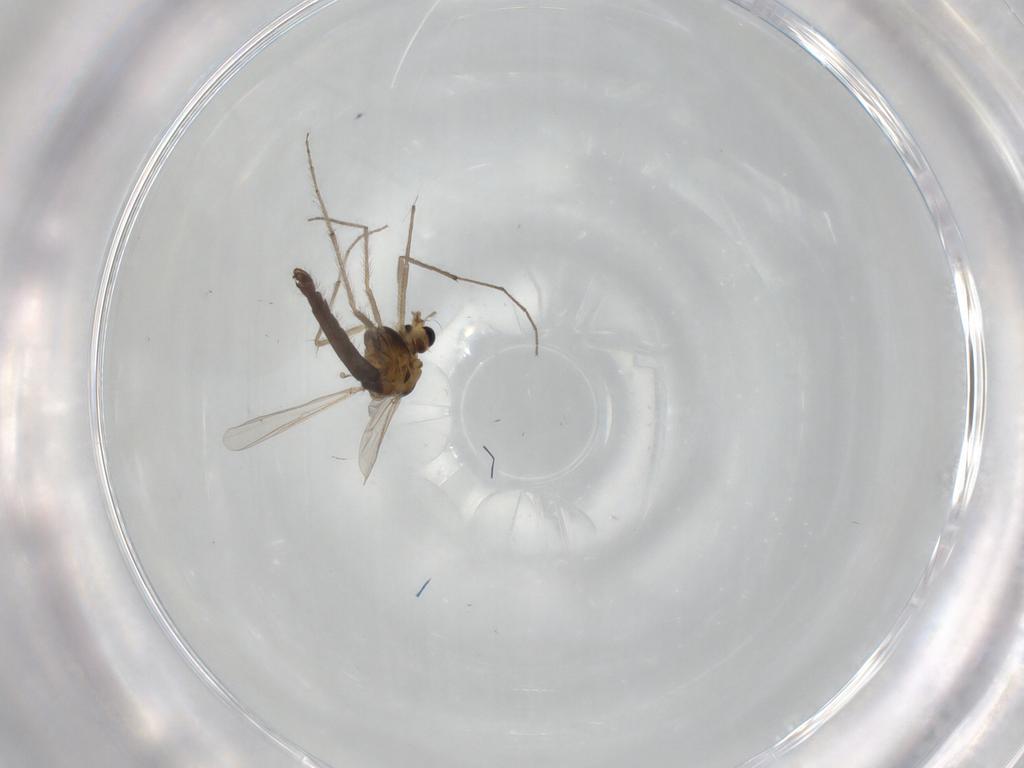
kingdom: Animalia
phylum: Arthropoda
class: Insecta
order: Diptera
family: Chironomidae
